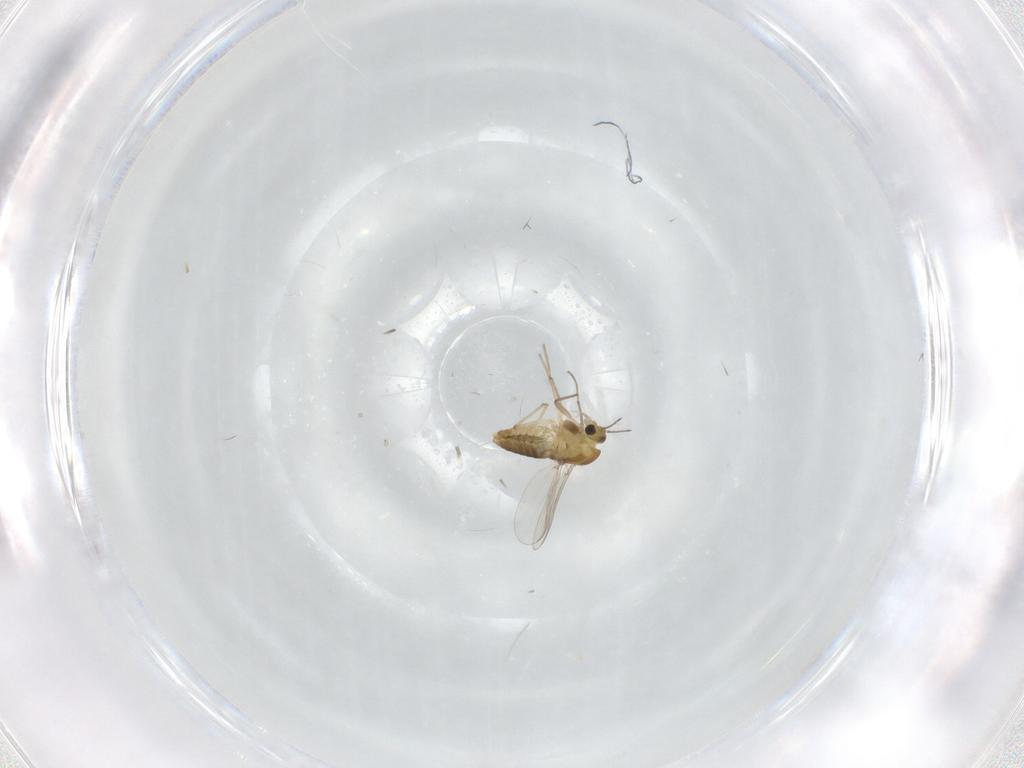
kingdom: Animalia
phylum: Arthropoda
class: Insecta
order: Diptera
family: Chironomidae
